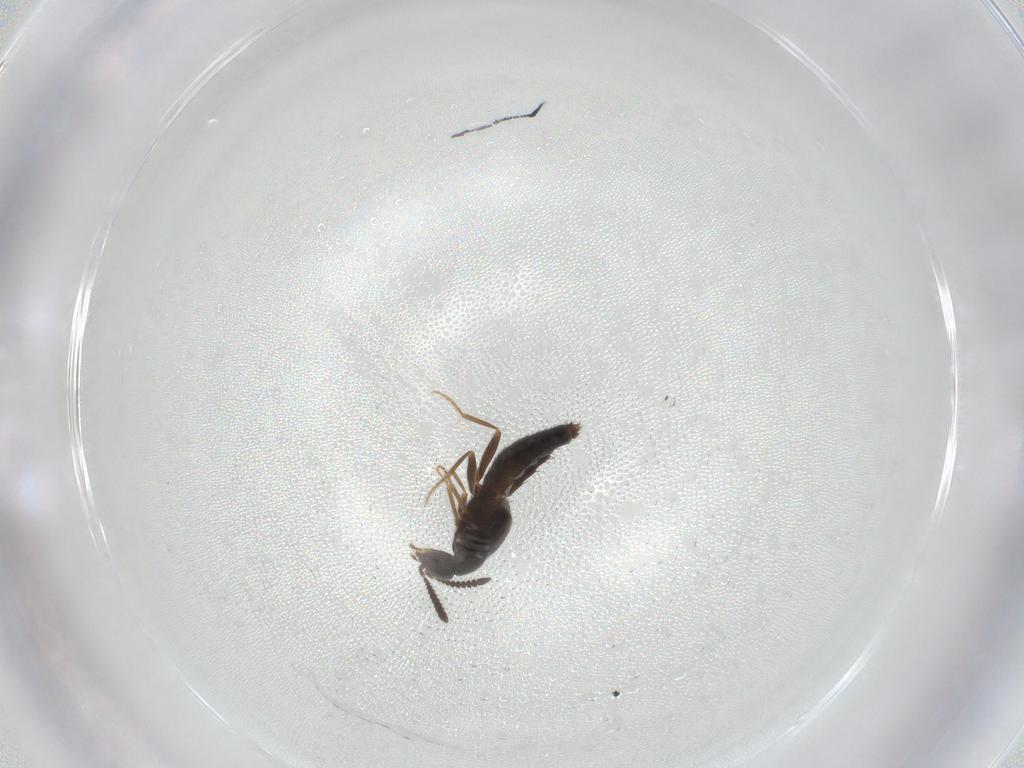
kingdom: Animalia
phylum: Arthropoda
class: Insecta
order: Coleoptera
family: Staphylinidae
